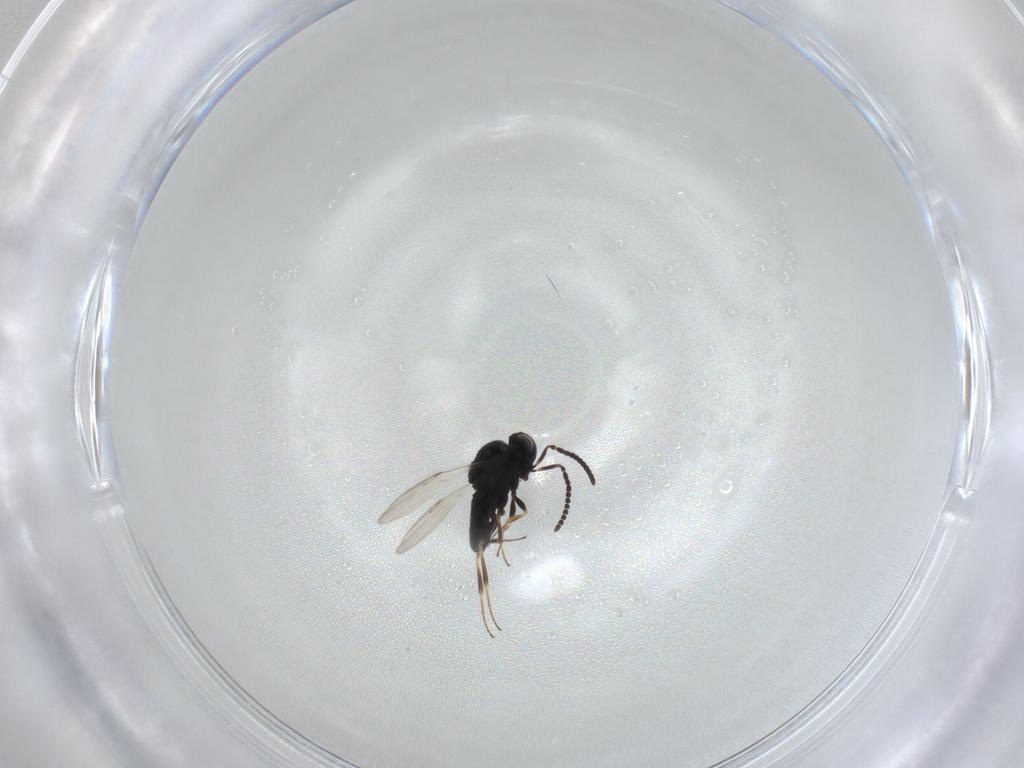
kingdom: Animalia
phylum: Arthropoda
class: Insecta
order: Hymenoptera
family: Scelionidae
